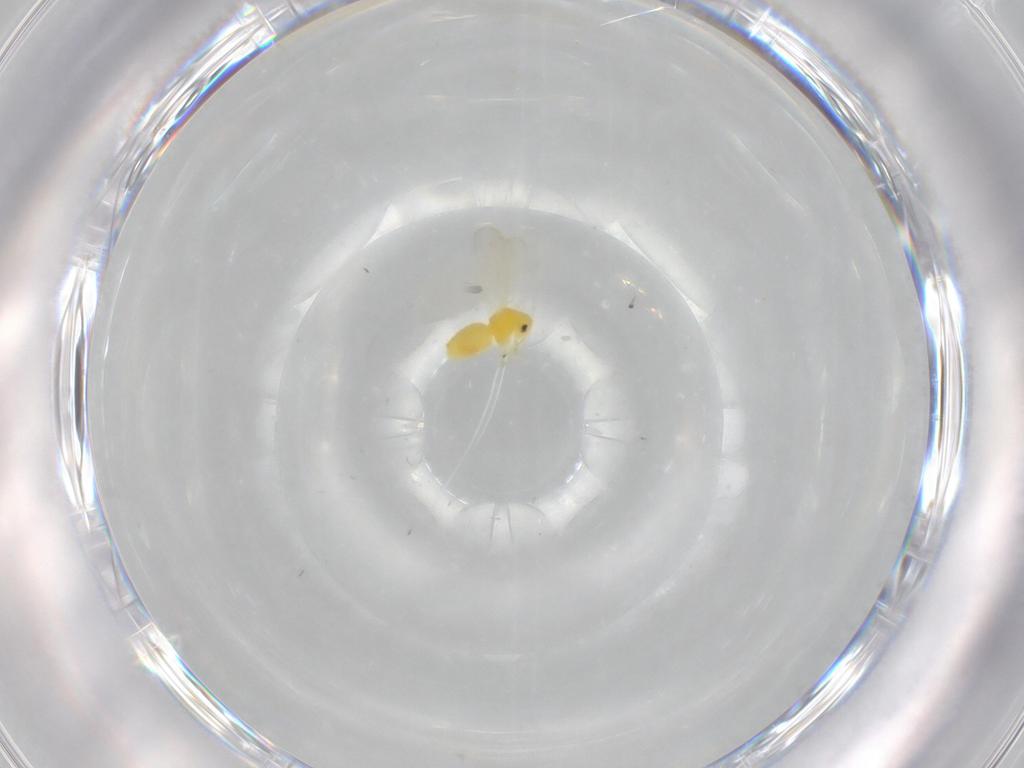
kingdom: Animalia
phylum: Arthropoda
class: Insecta
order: Hemiptera
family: Aleyrodidae
